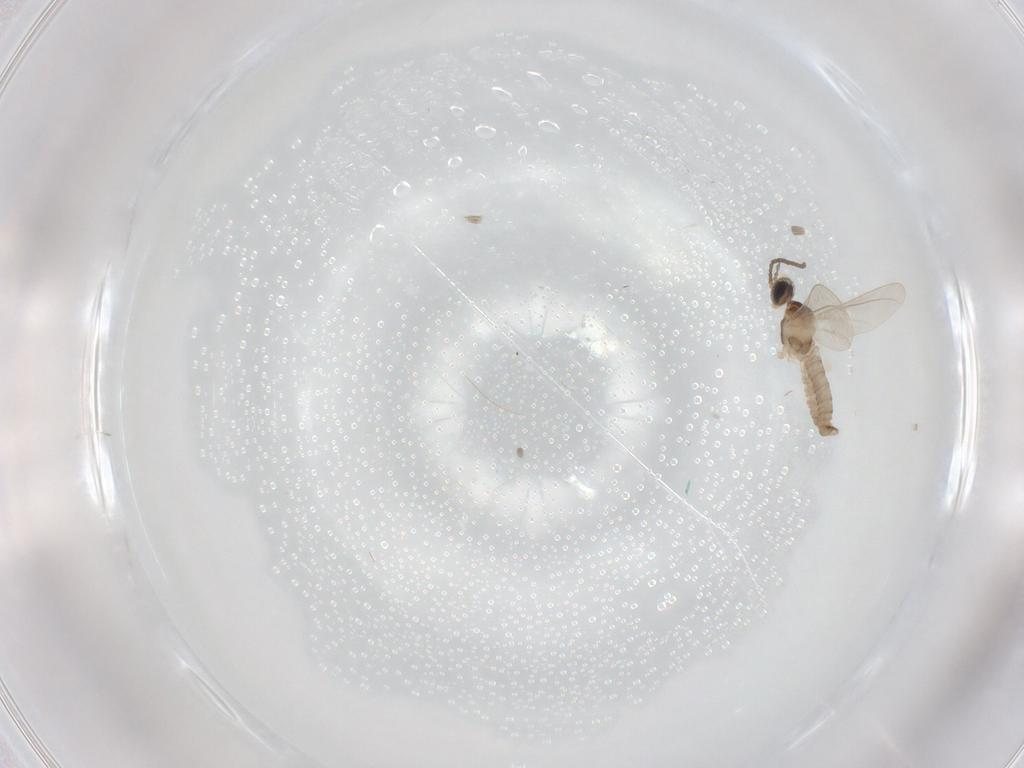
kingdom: Animalia
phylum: Arthropoda
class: Insecta
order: Diptera
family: Cecidomyiidae
